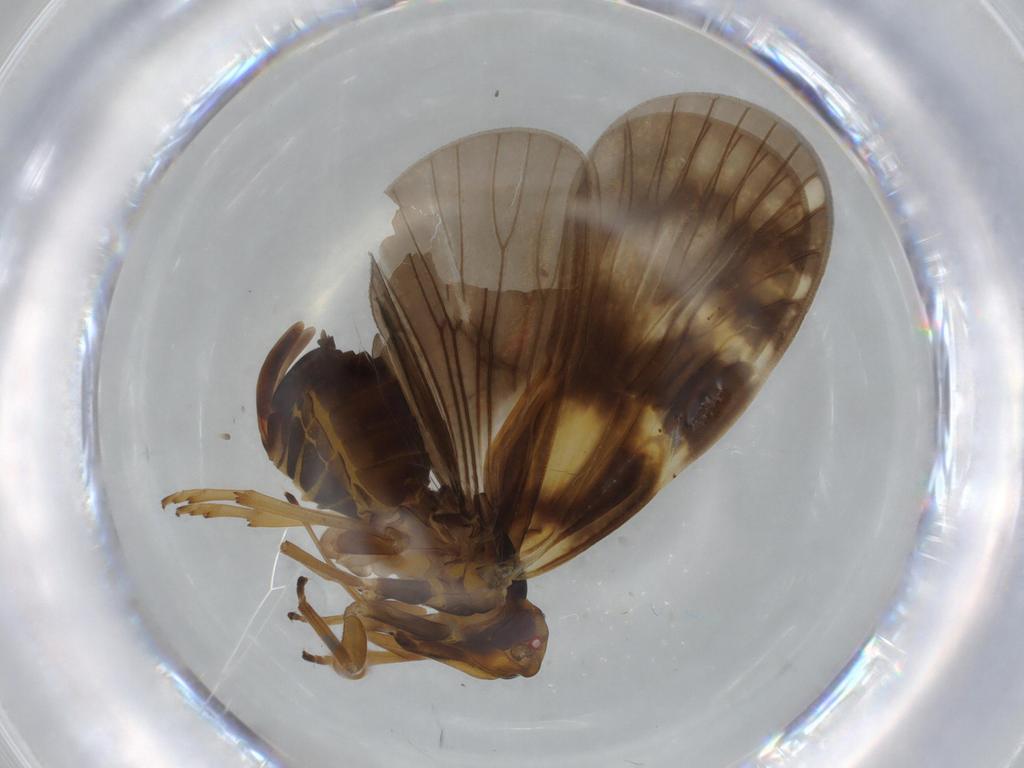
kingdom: Animalia
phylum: Arthropoda
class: Insecta
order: Hemiptera
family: Cixiidae
